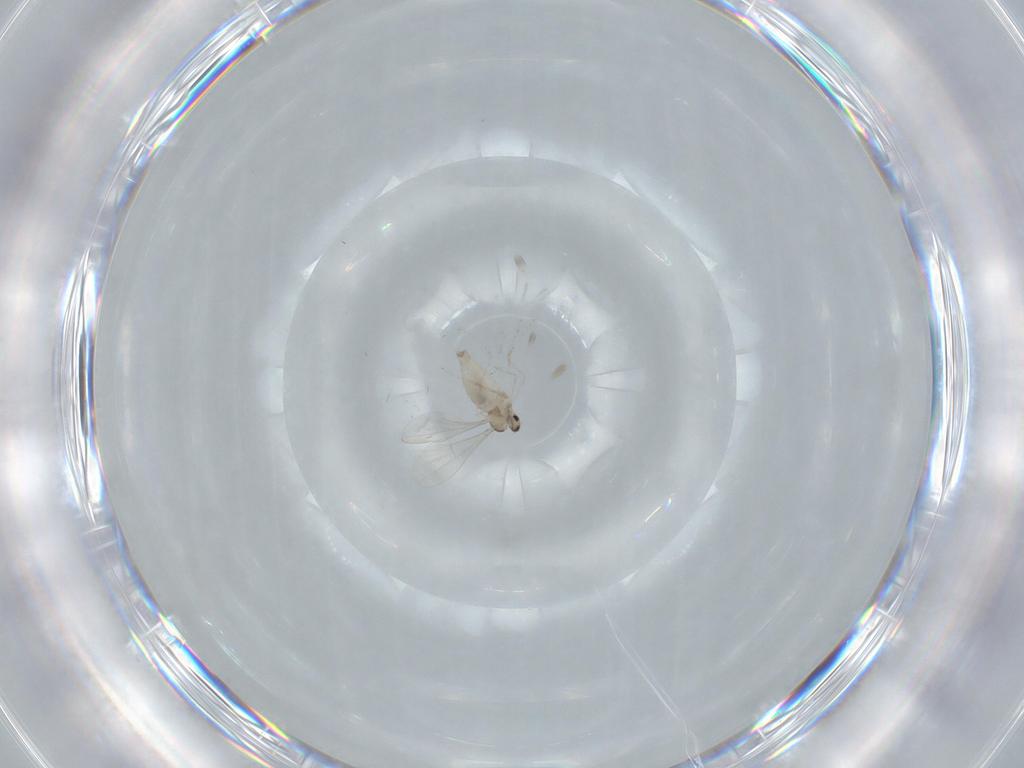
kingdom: Animalia
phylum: Arthropoda
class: Insecta
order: Diptera
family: Cecidomyiidae
